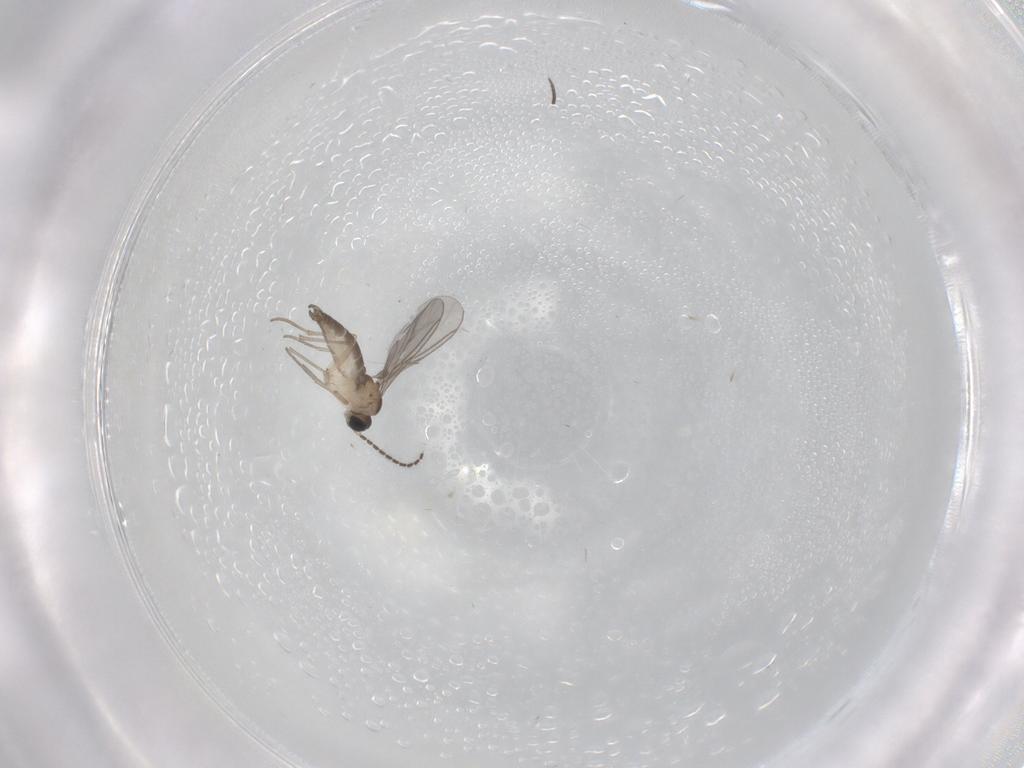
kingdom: Animalia
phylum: Arthropoda
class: Insecta
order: Diptera
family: Sciaridae
